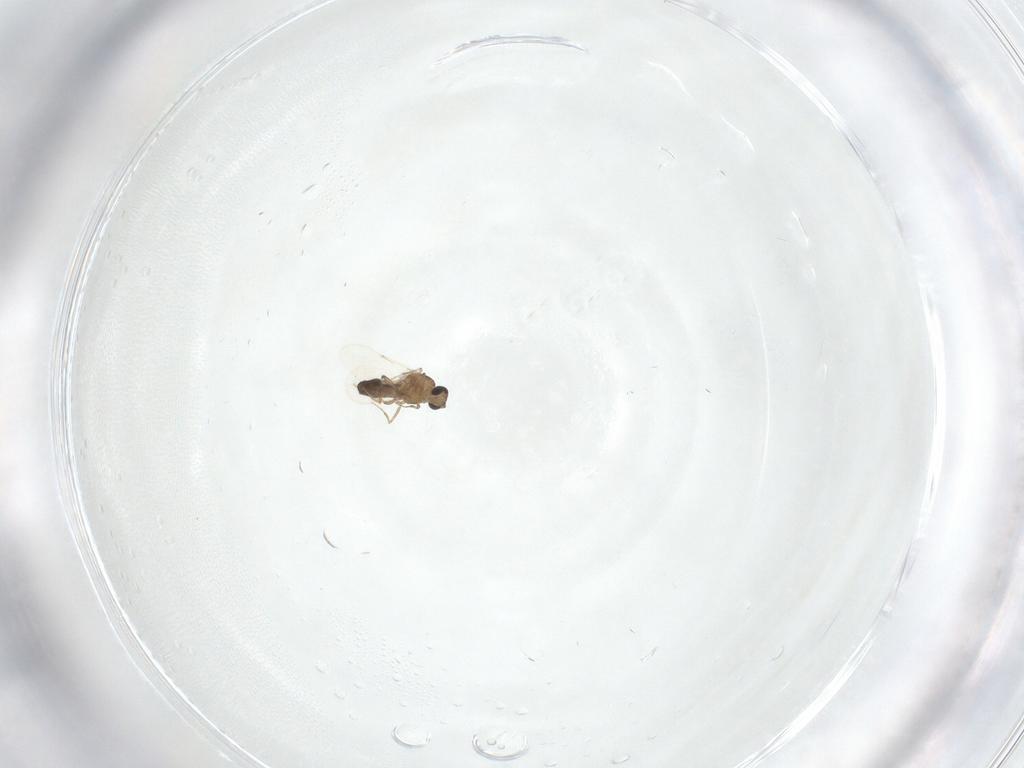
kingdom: Animalia
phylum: Arthropoda
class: Insecta
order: Diptera
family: Ceratopogonidae
